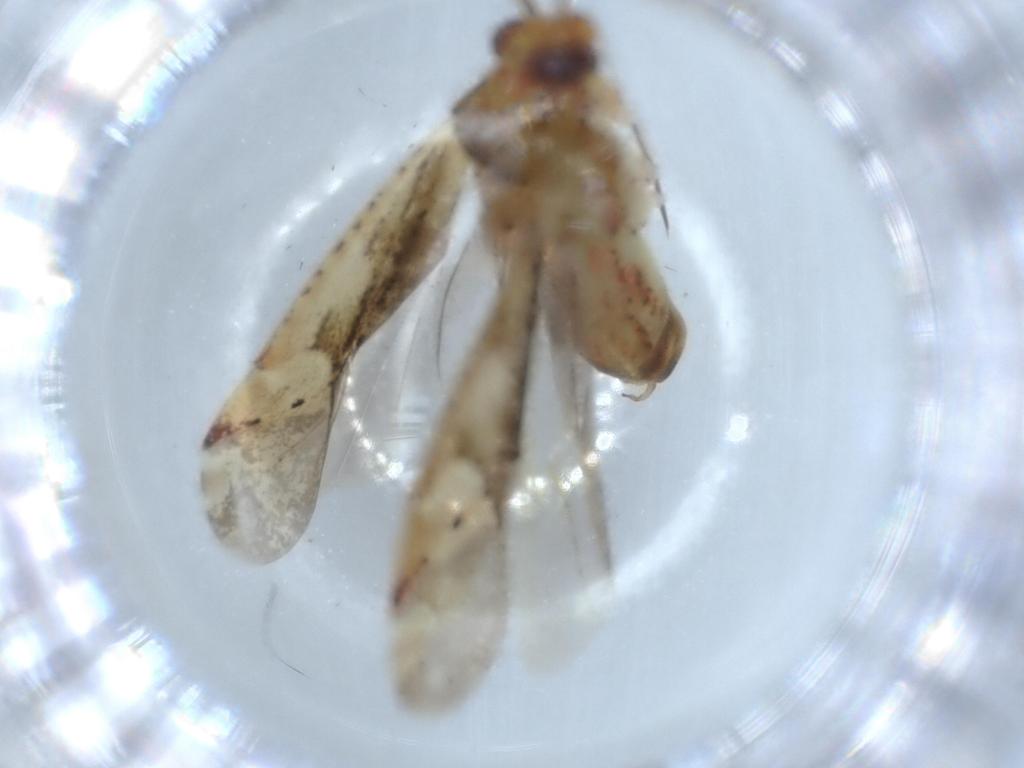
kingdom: Animalia
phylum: Arthropoda
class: Insecta
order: Hemiptera
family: Miridae
